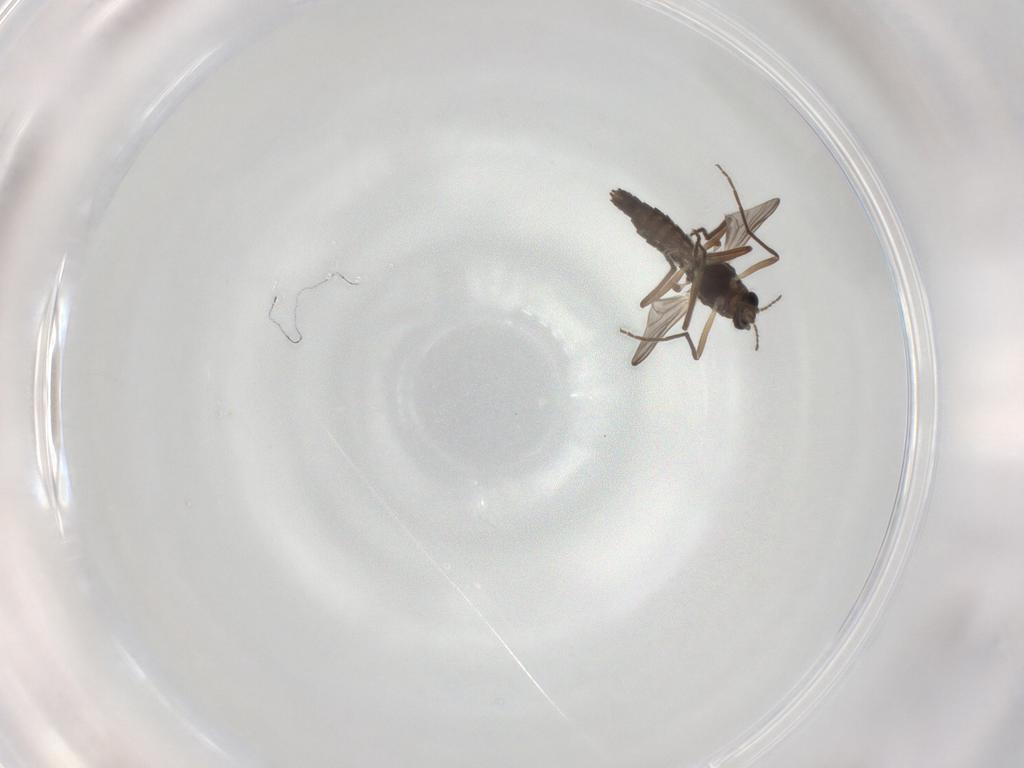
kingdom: Animalia
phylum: Arthropoda
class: Insecta
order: Diptera
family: Chironomidae
